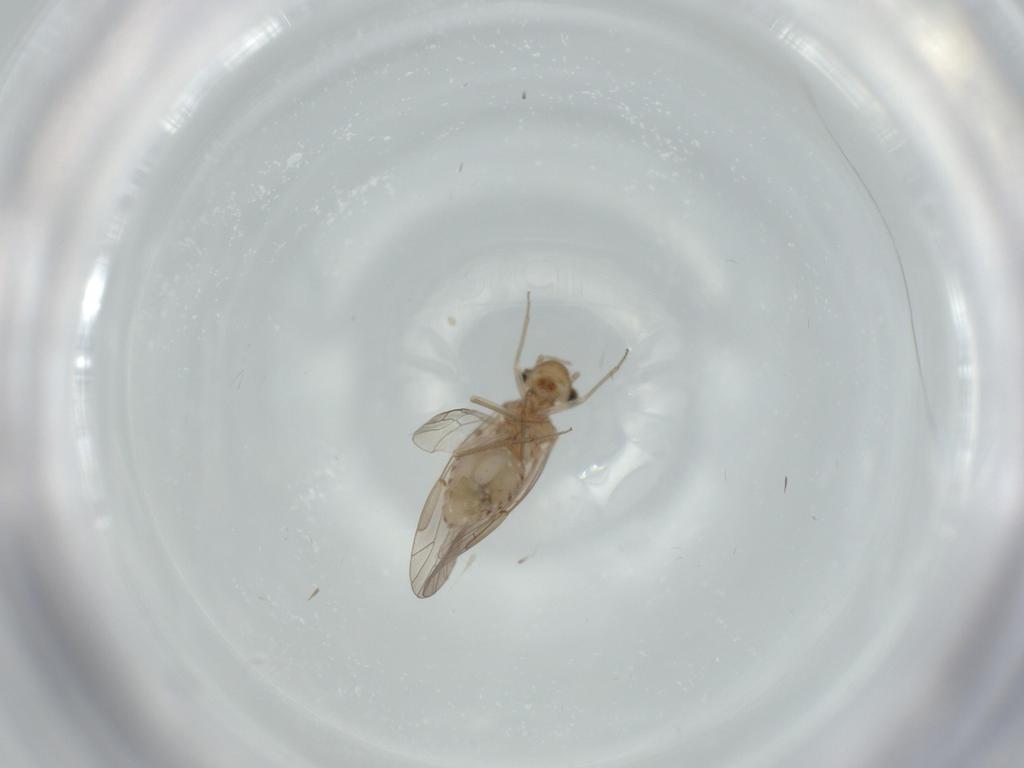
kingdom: Animalia
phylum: Arthropoda
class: Insecta
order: Psocodea
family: Lachesillidae
